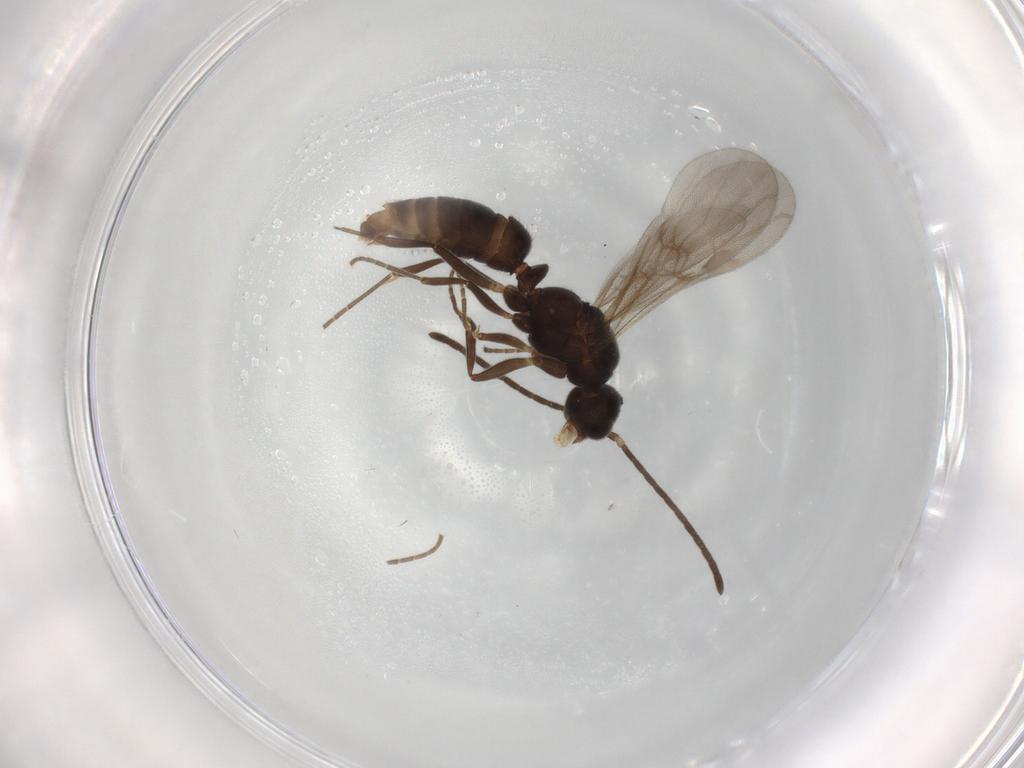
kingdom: Animalia
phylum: Arthropoda
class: Insecta
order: Hymenoptera
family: Formicidae
